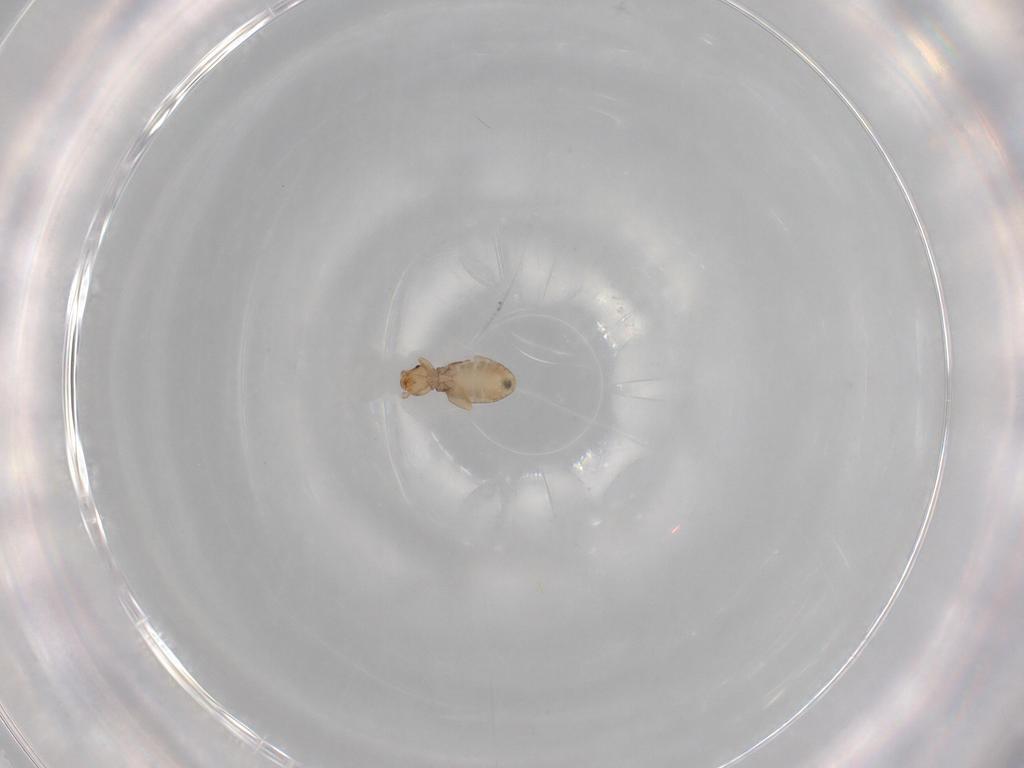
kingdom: Animalia
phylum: Arthropoda
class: Insecta
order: Psocodea
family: Liposcelididae
